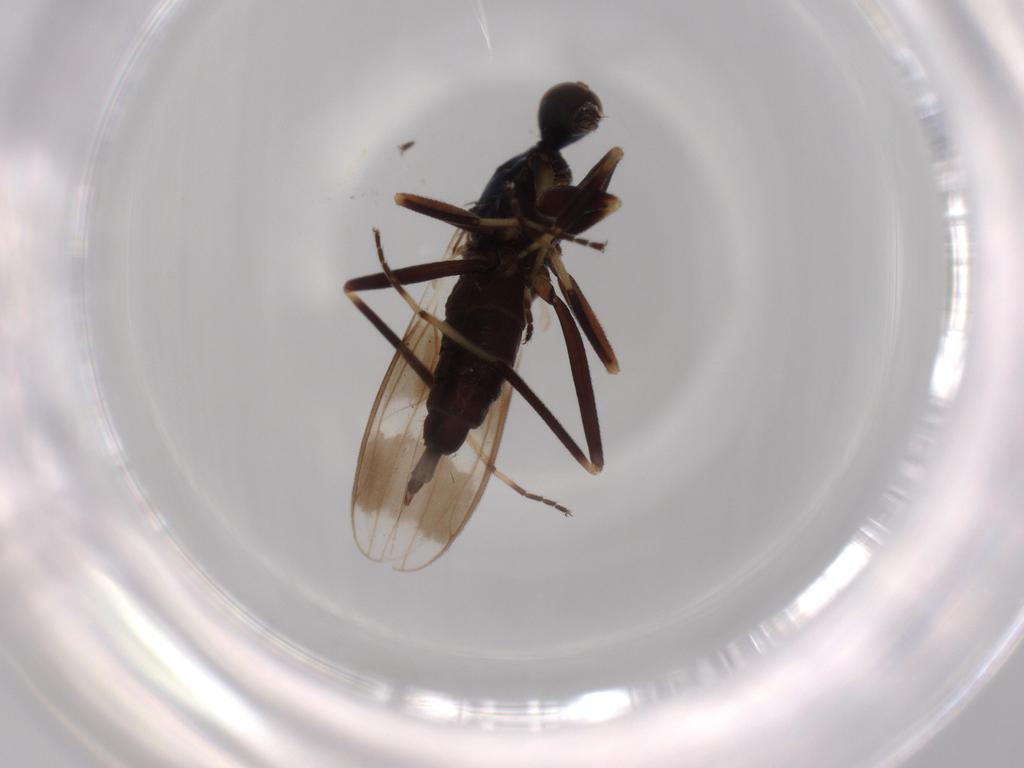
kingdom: Animalia
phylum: Arthropoda
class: Insecta
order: Diptera
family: Hybotidae
